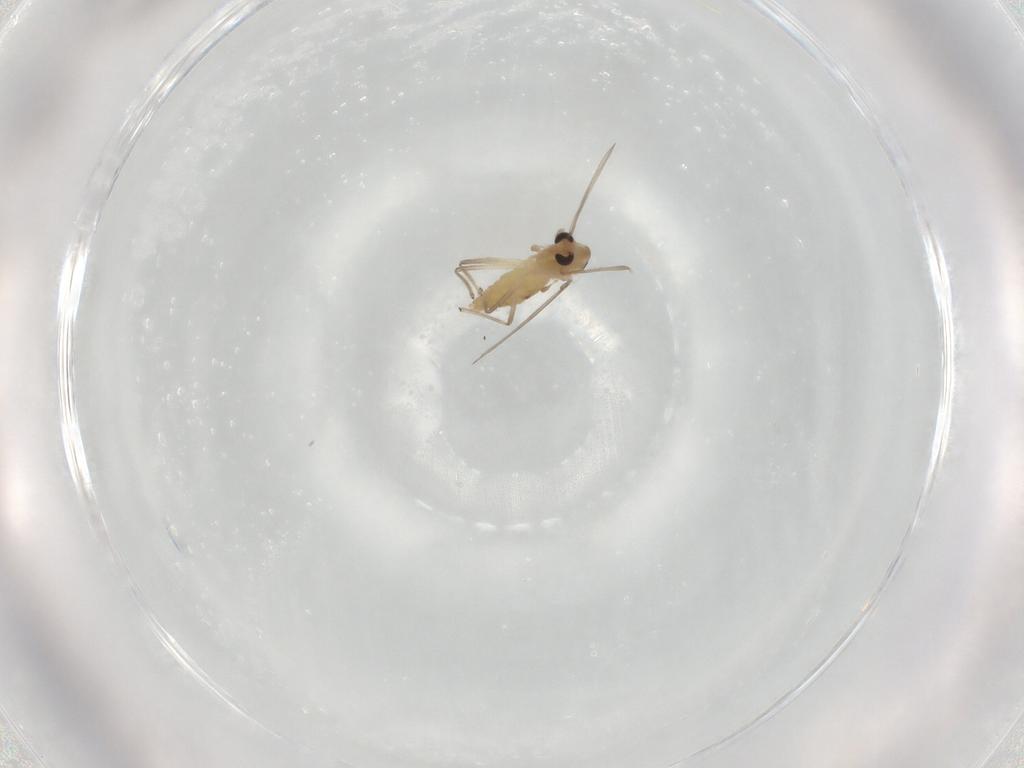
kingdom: Animalia
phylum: Arthropoda
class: Insecta
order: Diptera
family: Chironomidae
